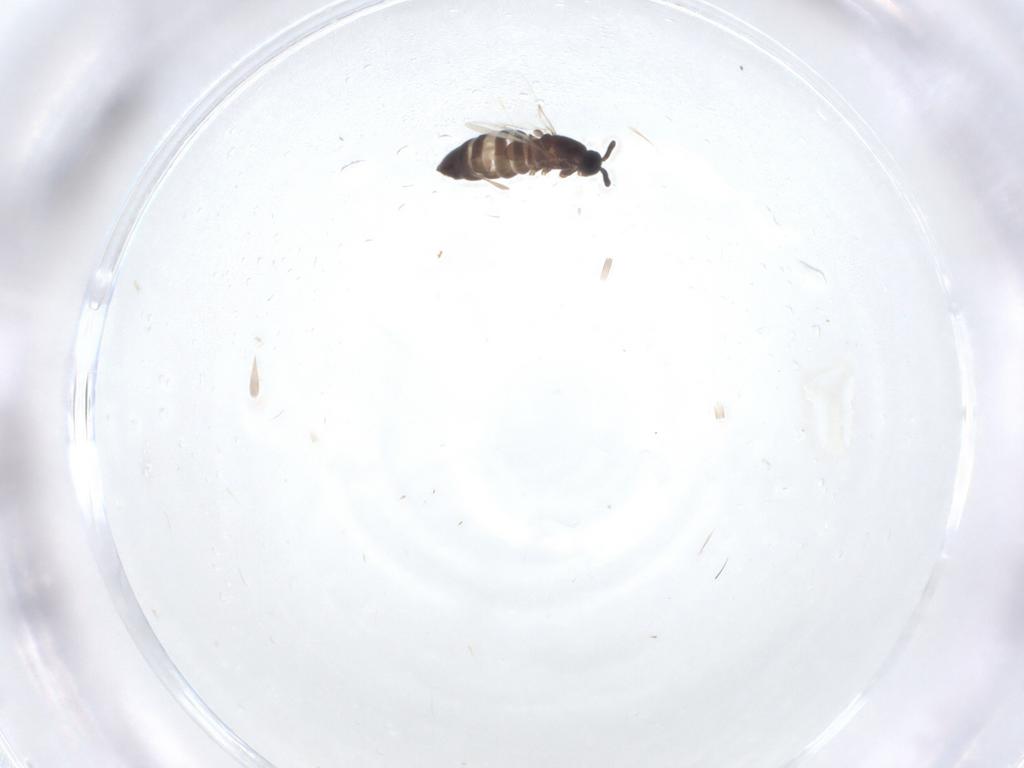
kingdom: Animalia
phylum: Arthropoda
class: Insecta
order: Diptera
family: Scatopsidae
